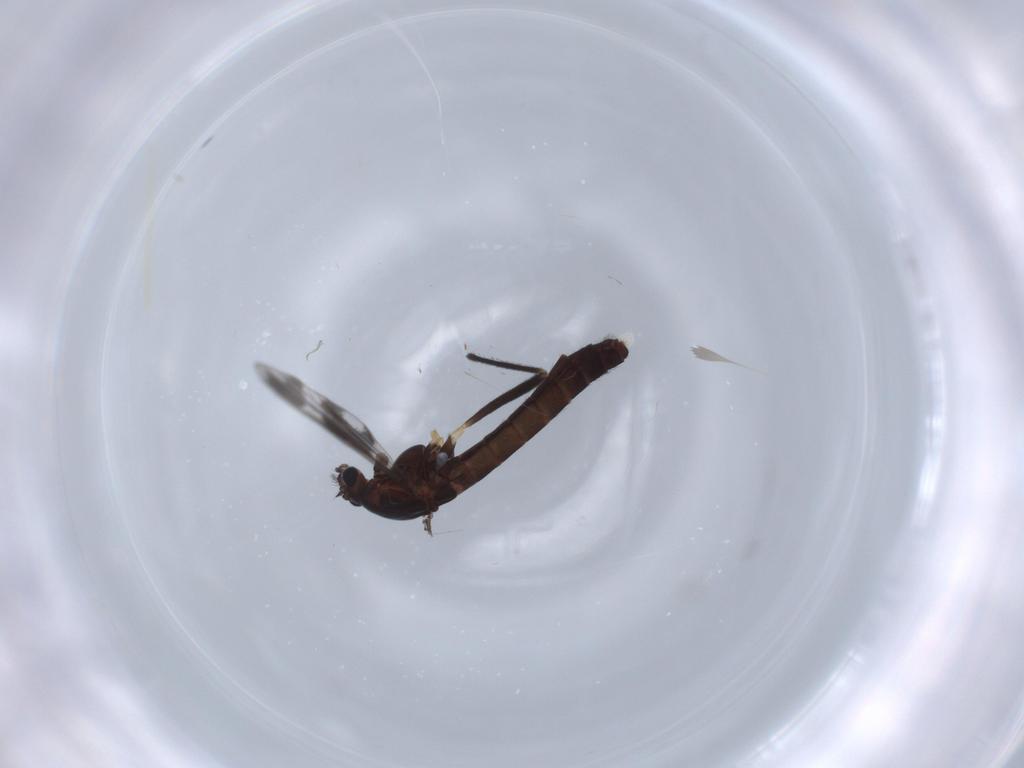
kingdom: Animalia
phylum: Arthropoda
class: Insecta
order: Diptera
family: Chironomidae
